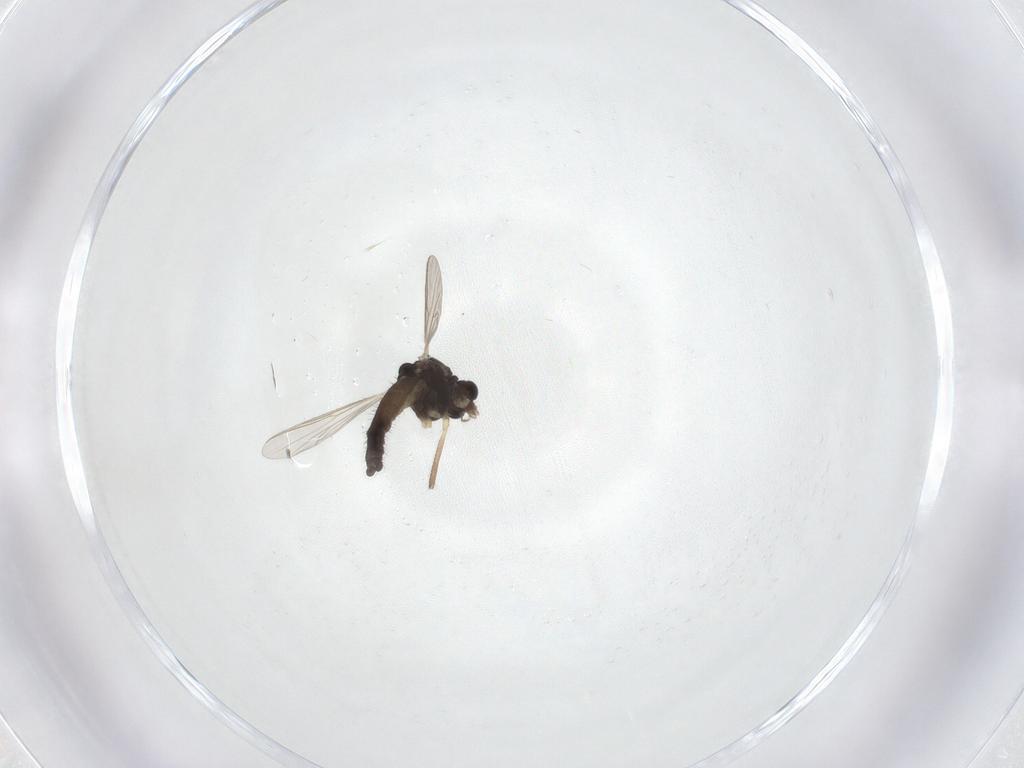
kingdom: Animalia
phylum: Arthropoda
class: Insecta
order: Diptera
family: Chironomidae
